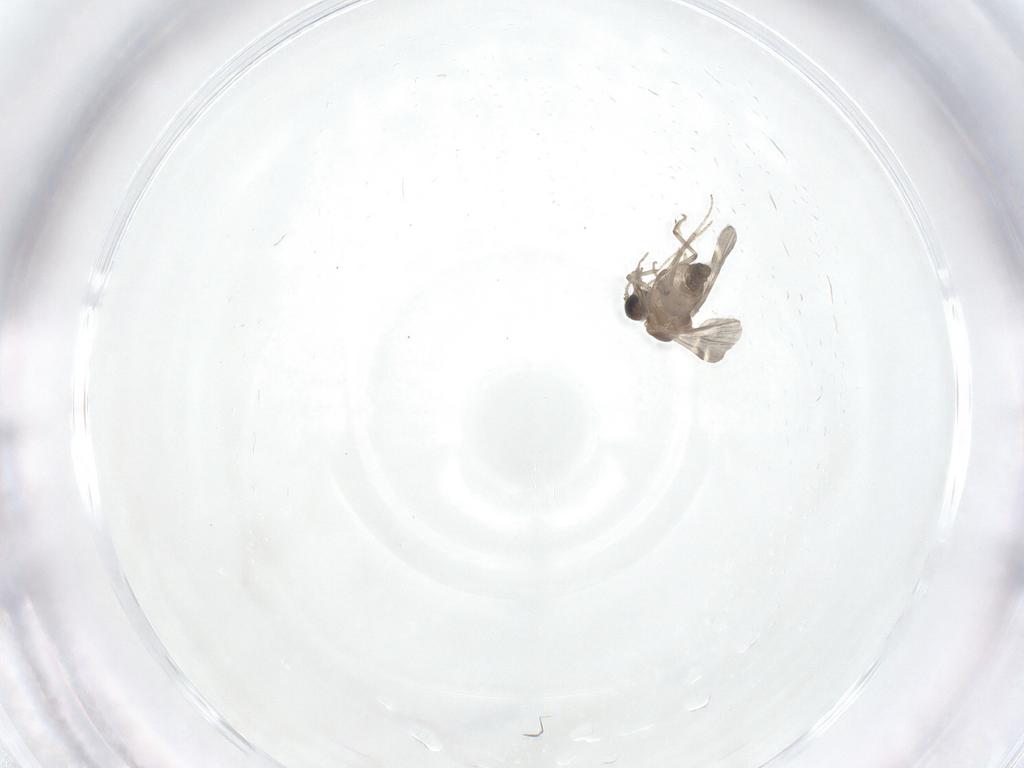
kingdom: Animalia
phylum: Arthropoda
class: Insecta
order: Diptera
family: Ceratopogonidae
